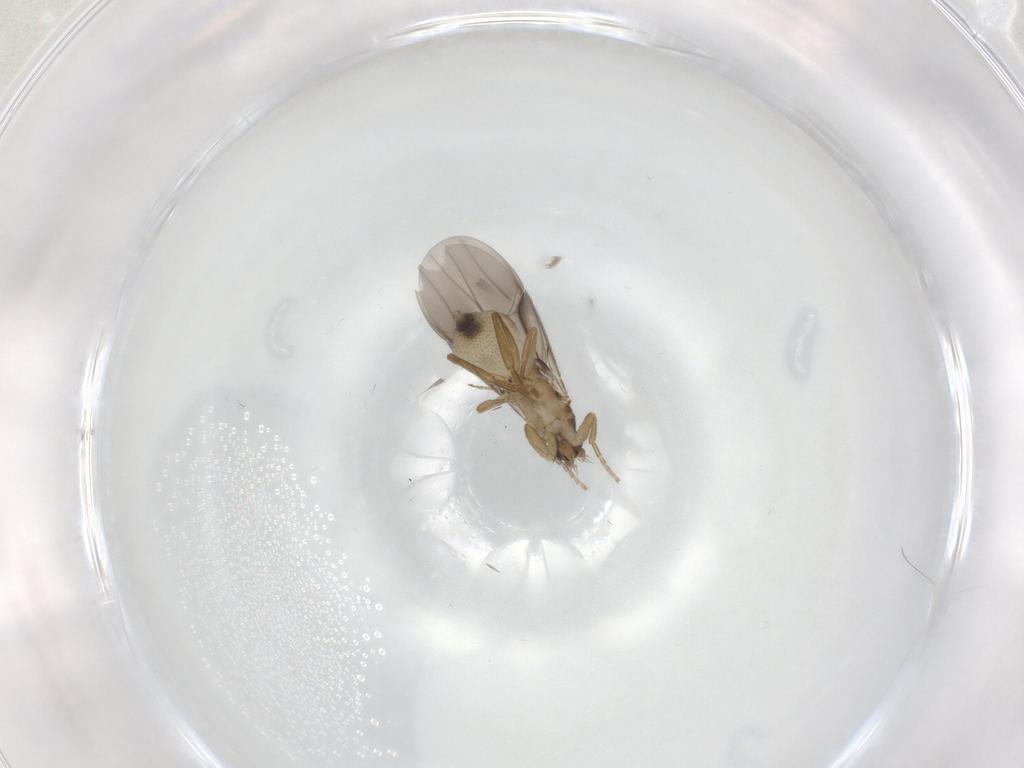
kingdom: Animalia
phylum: Arthropoda
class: Insecta
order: Diptera
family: Phoridae
